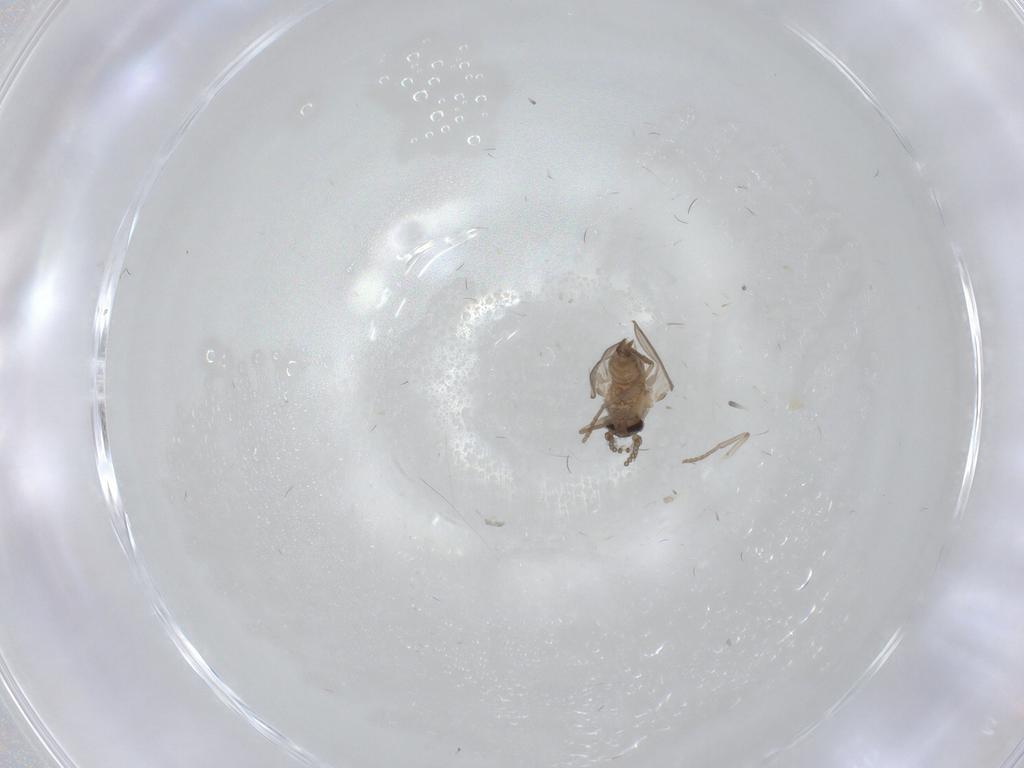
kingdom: Animalia
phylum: Arthropoda
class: Insecta
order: Diptera
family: Psychodidae
